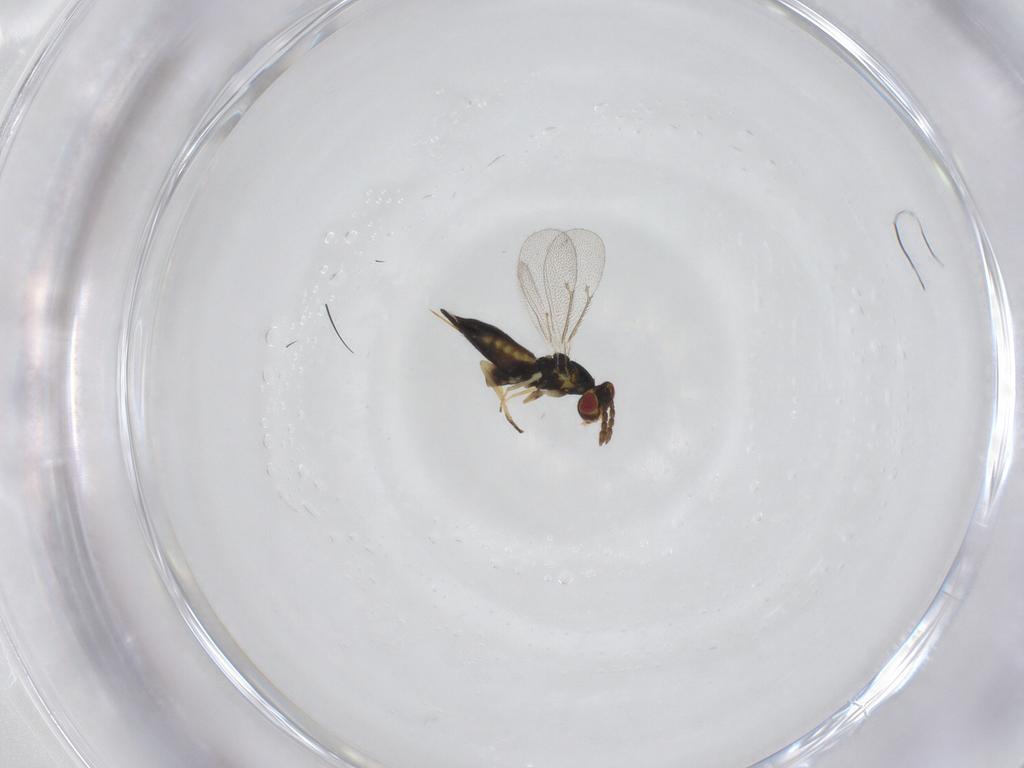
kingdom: Animalia
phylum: Arthropoda
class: Insecta
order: Hymenoptera
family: Eulophidae
